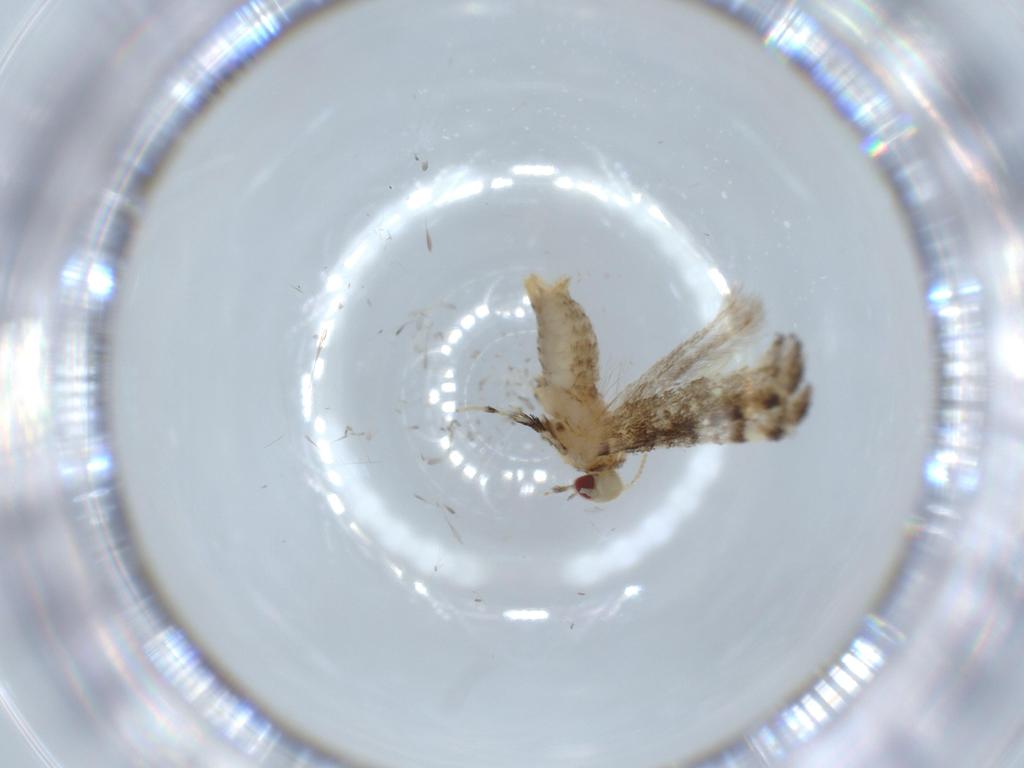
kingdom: Animalia
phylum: Arthropoda
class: Insecta
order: Lepidoptera
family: Gracillariidae
